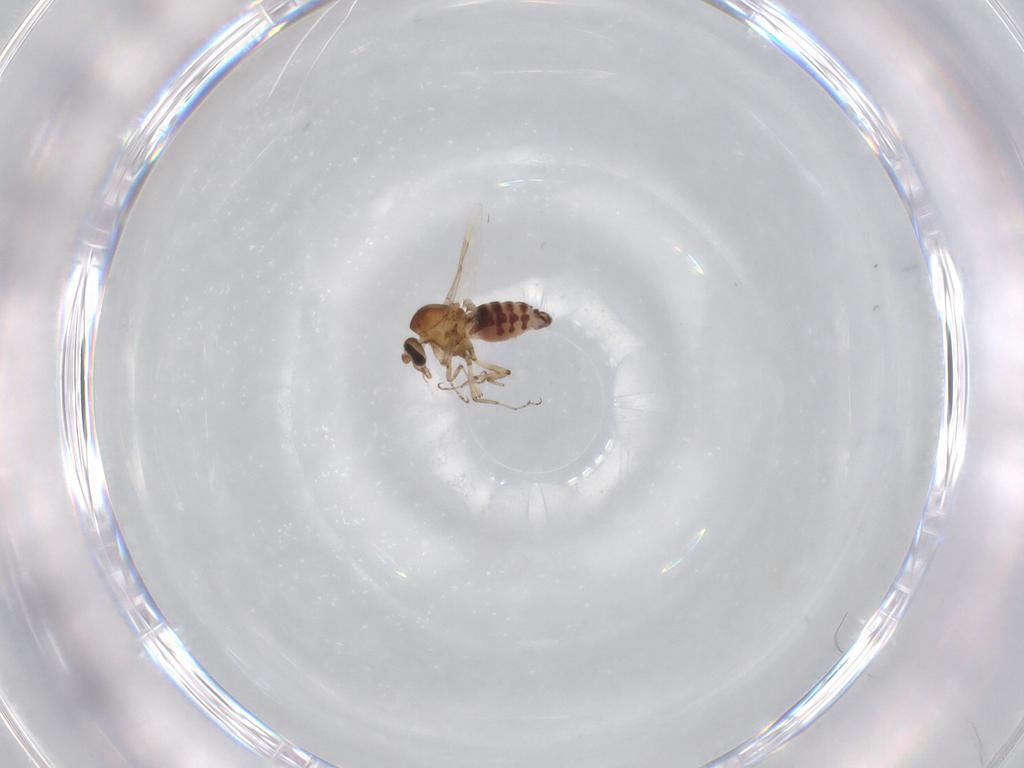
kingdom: Animalia
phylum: Arthropoda
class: Insecta
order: Diptera
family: Ceratopogonidae
